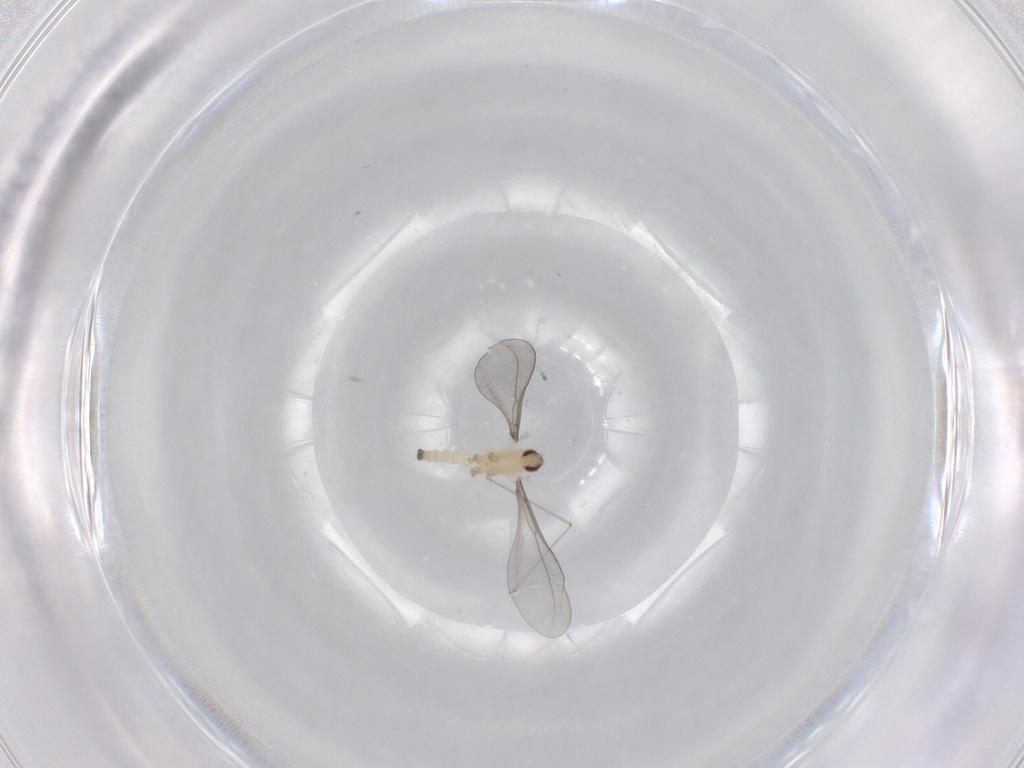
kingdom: Animalia
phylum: Arthropoda
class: Insecta
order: Diptera
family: Cecidomyiidae
